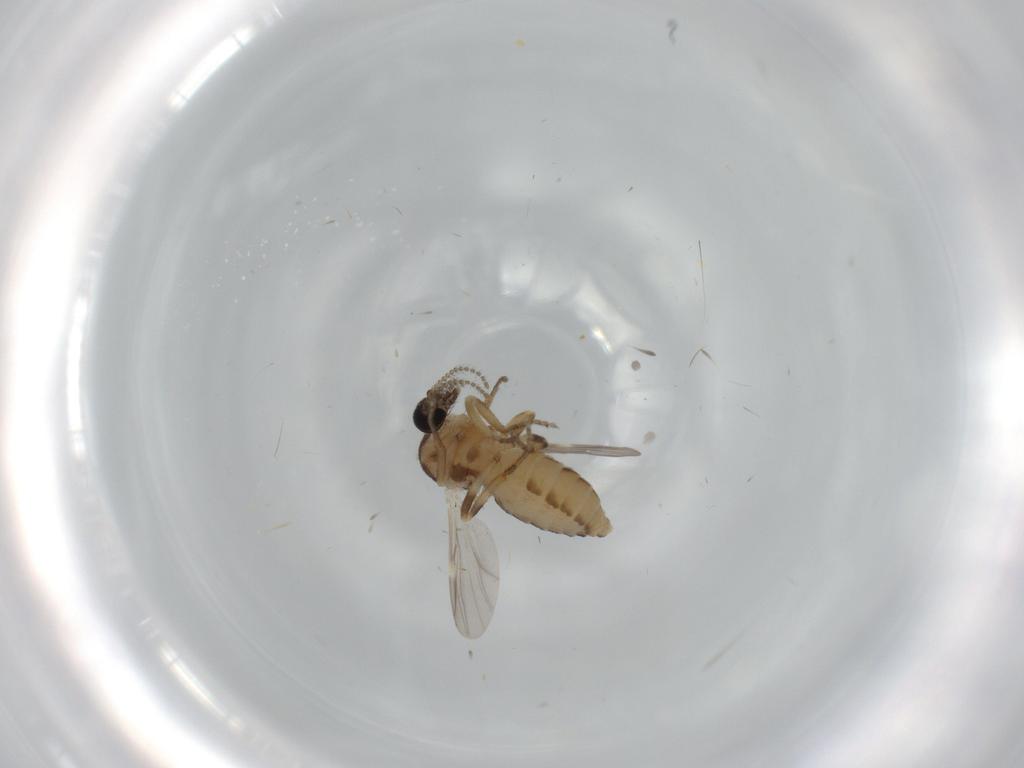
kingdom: Animalia
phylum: Arthropoda
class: Insecta
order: Diptera
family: Ceratopogonidae
